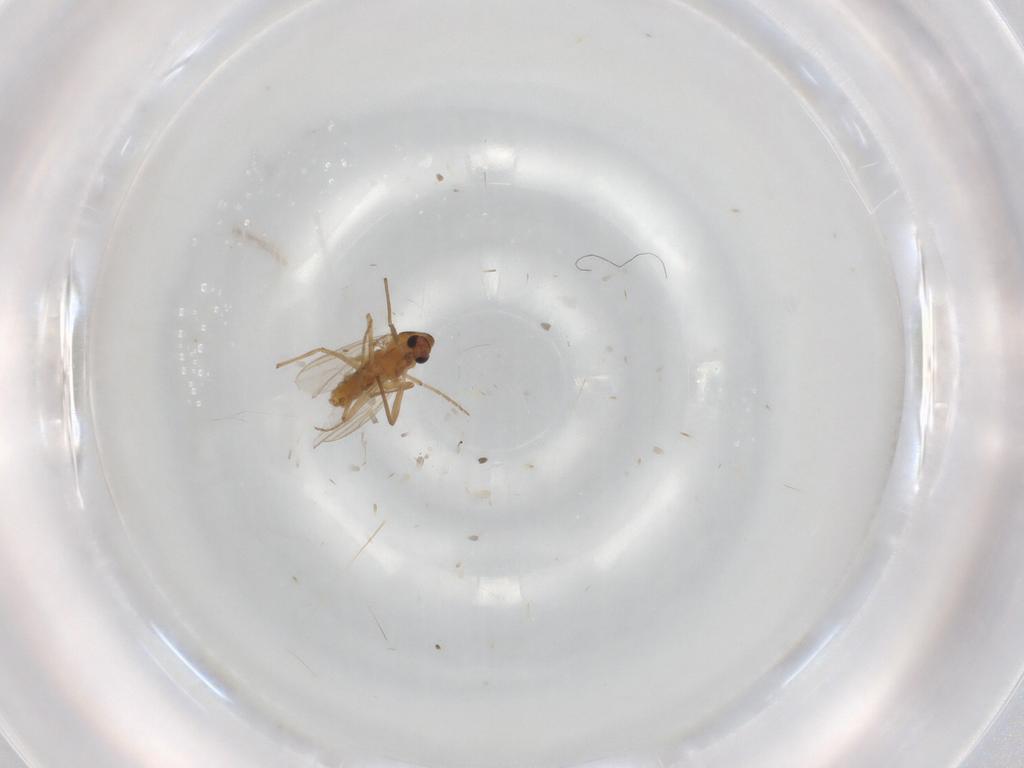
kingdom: Animalia
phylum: Arthropoda
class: Insecta
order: Diptera
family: Chironomidae
